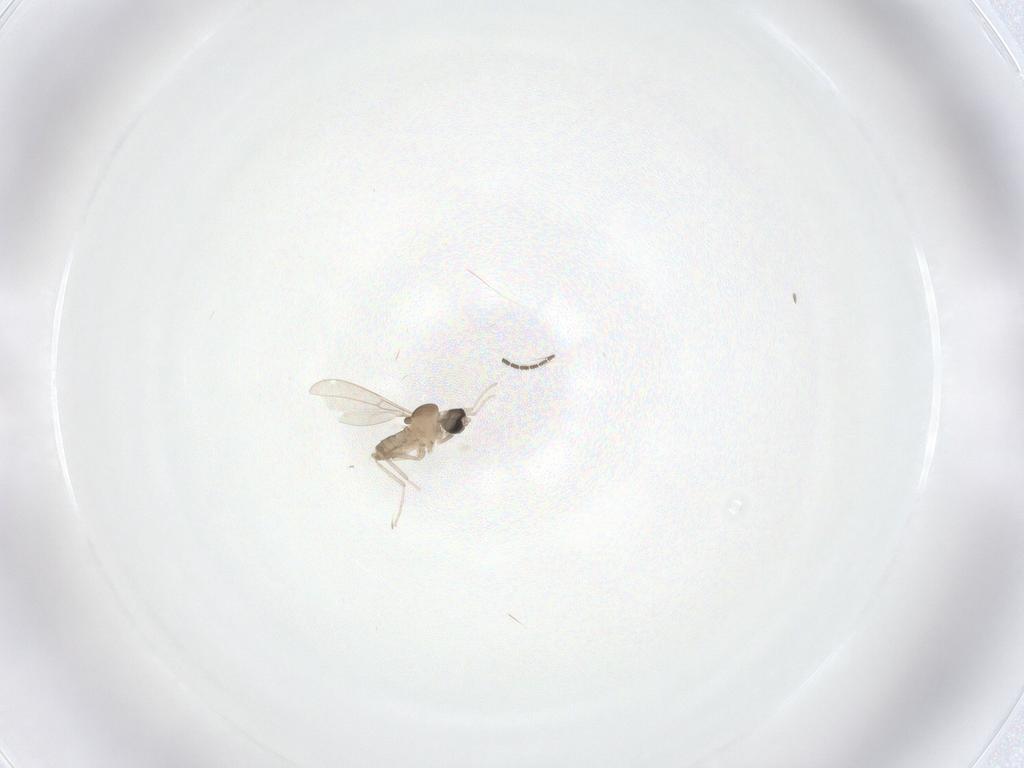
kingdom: Animalia
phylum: Arthropoda
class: Insecta
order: Diptera
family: Cecidomyiidae
